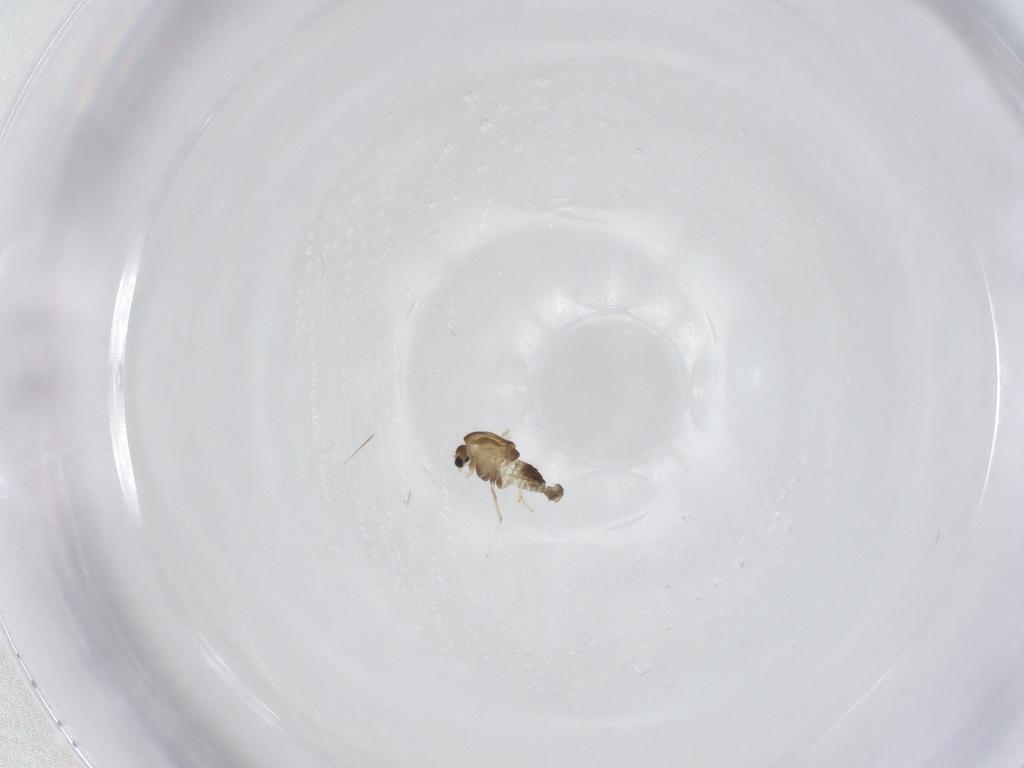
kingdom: Animalia
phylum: Arthropoda
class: Insecta
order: Diptera
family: Chironomidae
